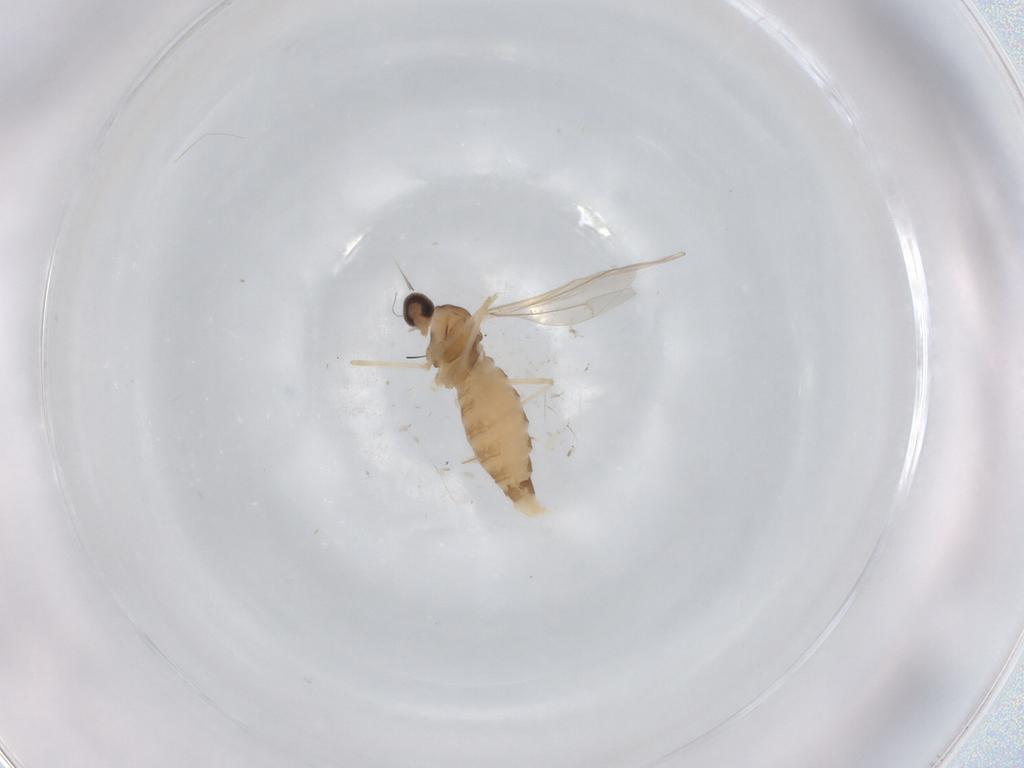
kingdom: Animalia
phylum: Arthropoda
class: Insecta
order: Diptera
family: Cecidomyiidae
